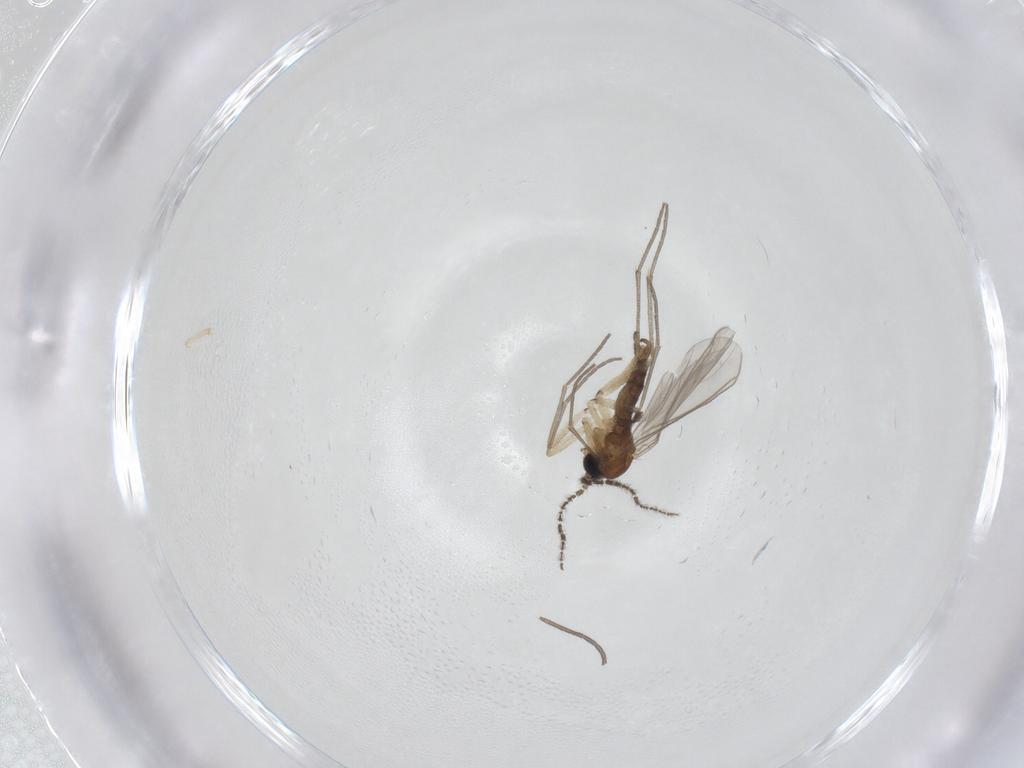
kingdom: Animalia
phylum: Arthropoda
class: Insecta
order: Diptera
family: Sciaridae
